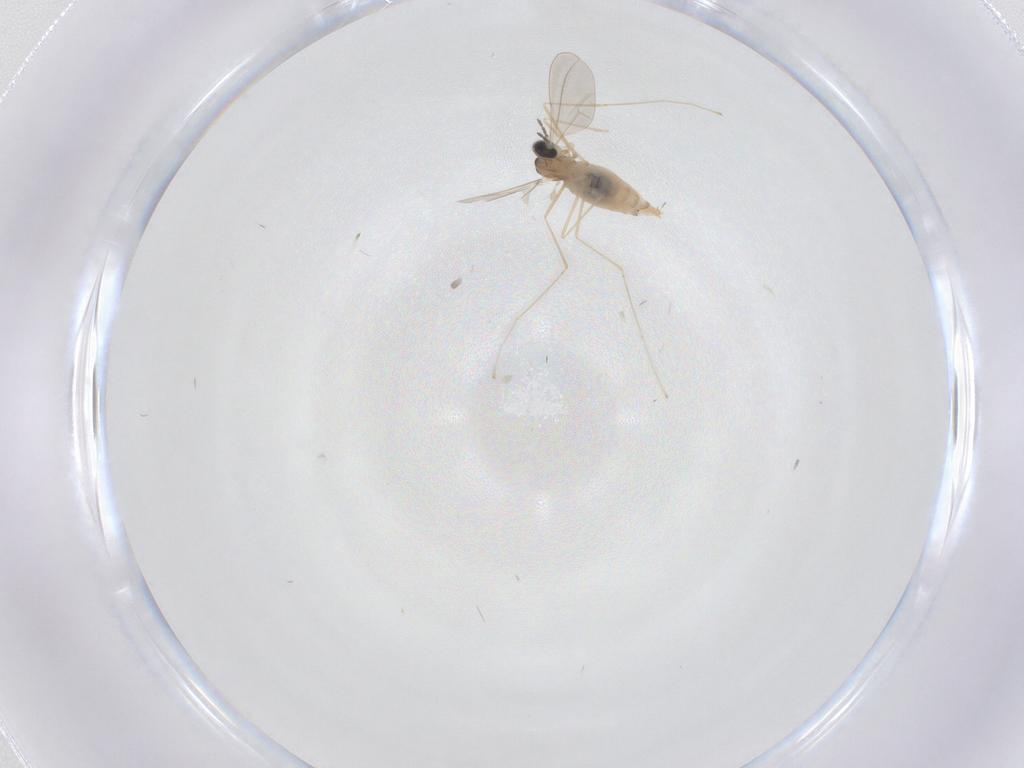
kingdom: Animalia
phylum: Arthropoda
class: Insecta
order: Diptera
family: Cecidomyiidae
